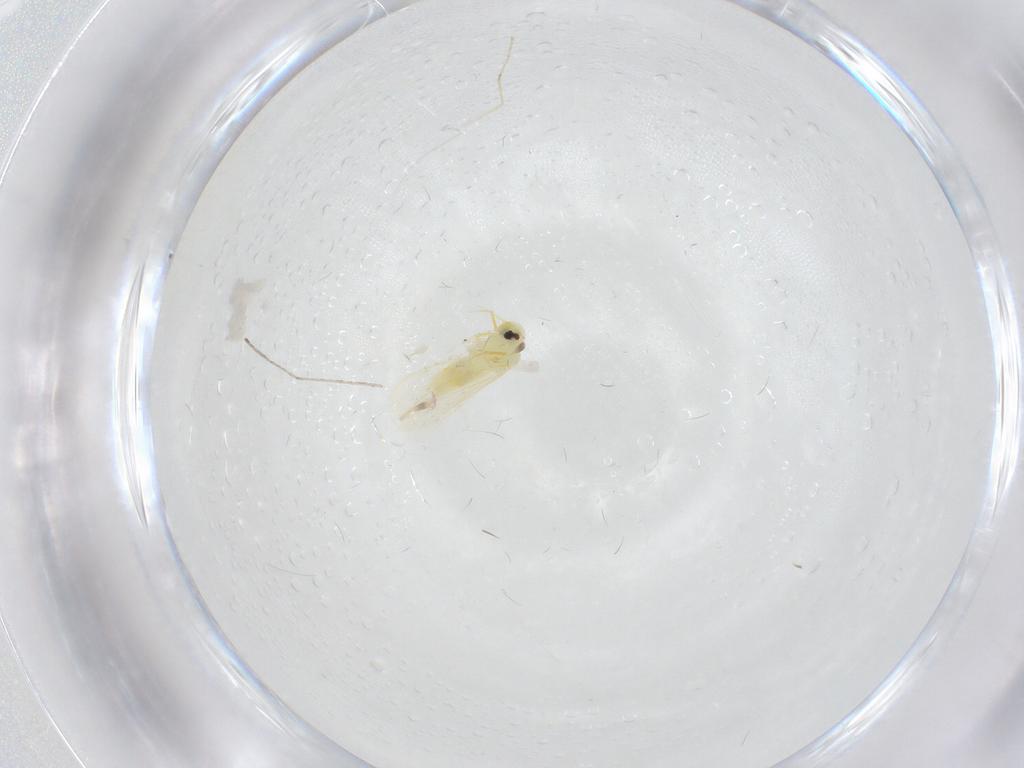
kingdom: Animalia
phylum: Arthropoda
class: Insecta
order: Hemiptera
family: Aleyrodidae
